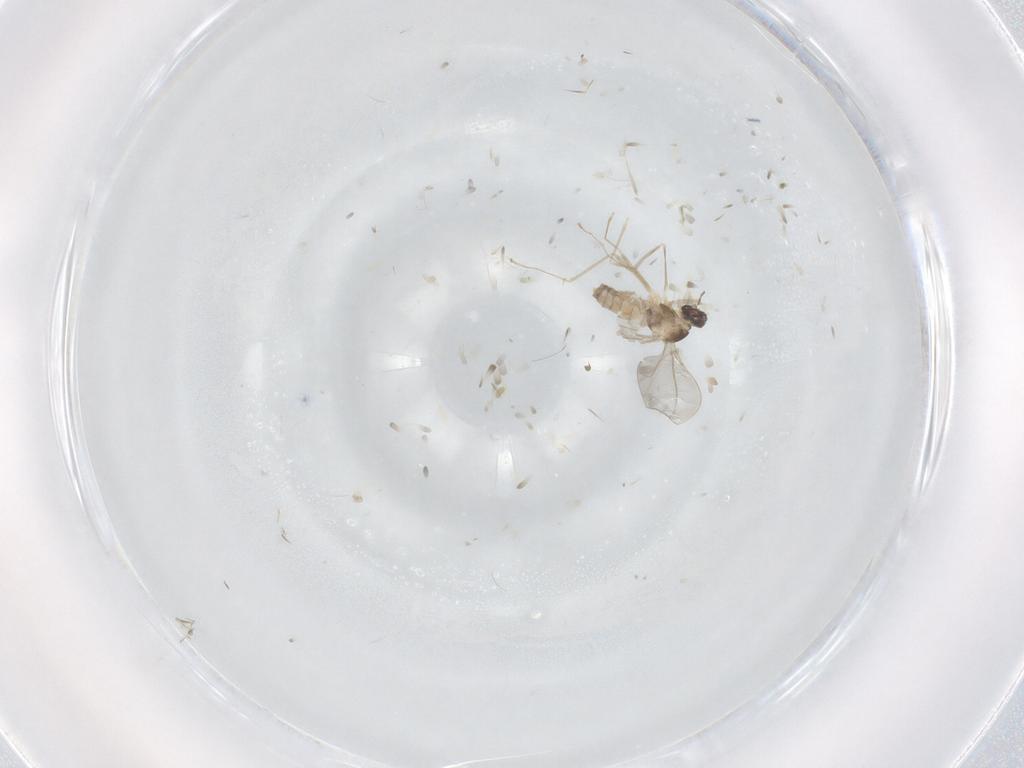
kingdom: Animalia
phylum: Arthropoda
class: Insecta
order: Diptera
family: Cecidomyiidae
